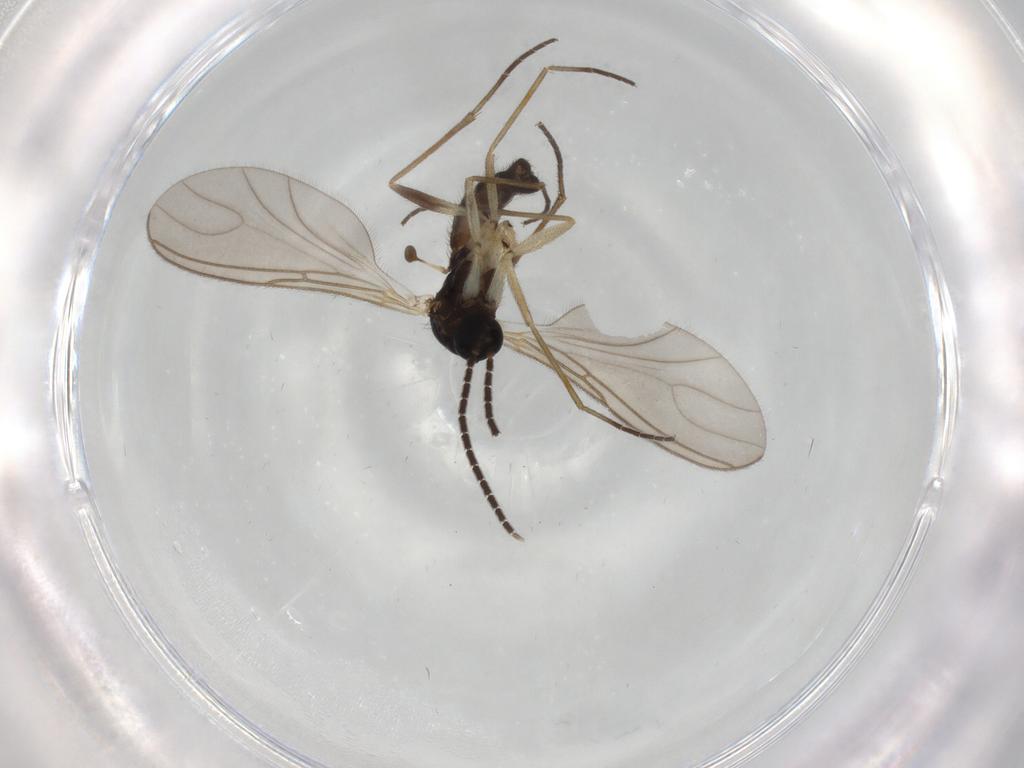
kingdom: Animalia
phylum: Arthropoda
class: Insecta
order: Diptera
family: Sciaridae
